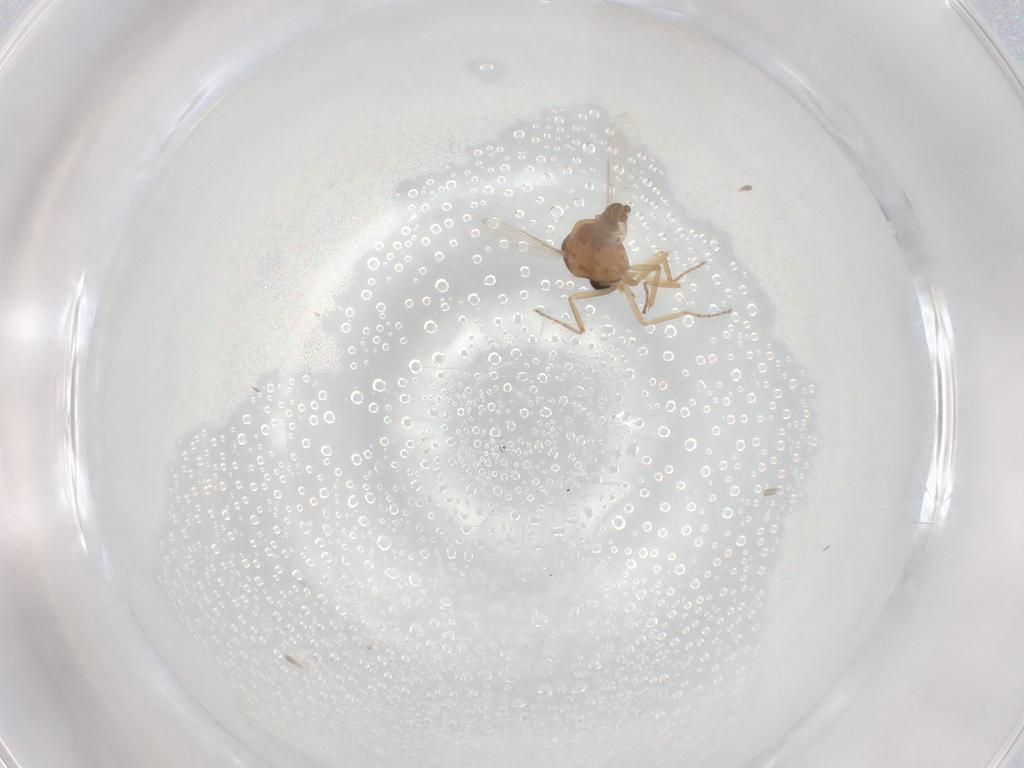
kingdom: Animalia
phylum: Arthropoda
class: Insecta
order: Diptera
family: Ceratopogonidae
